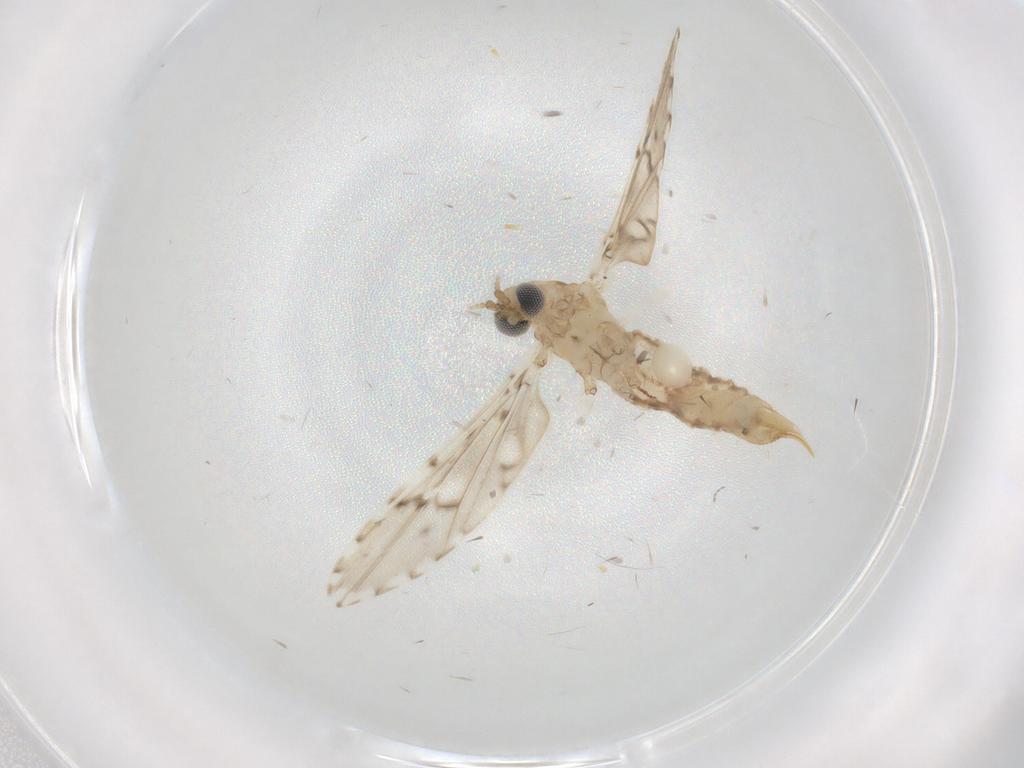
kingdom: Animalia
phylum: Arthropoda
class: Insecta
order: Diptera
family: Limoniidae
